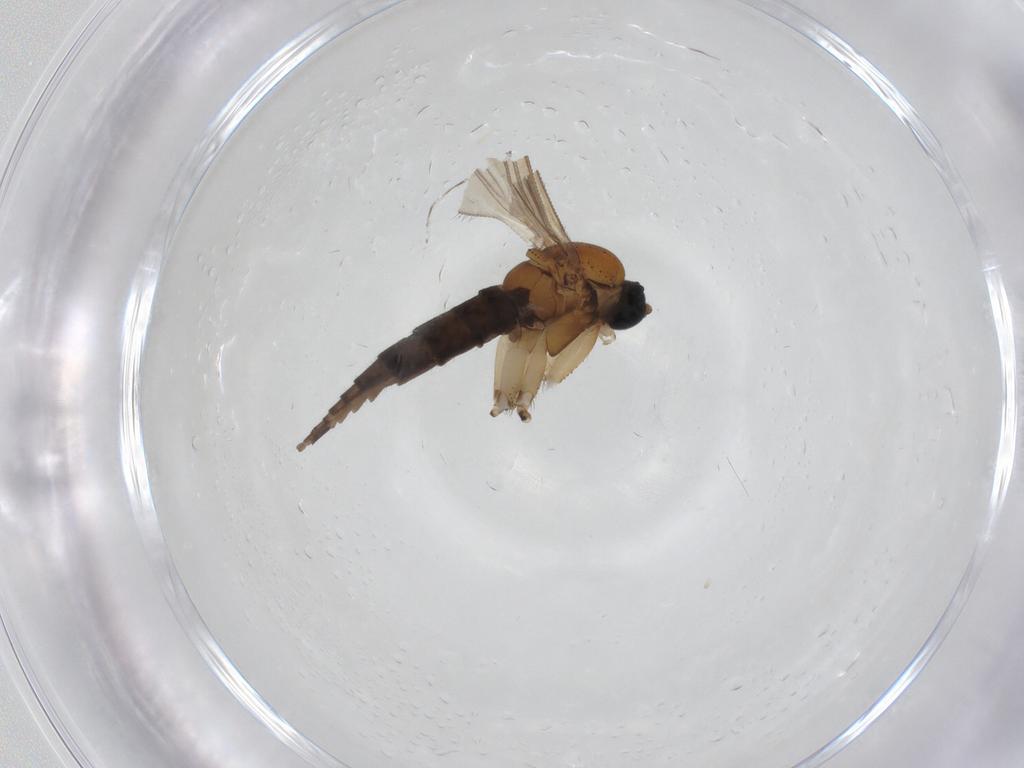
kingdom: Animalia
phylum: Arthropoda
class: Insecta
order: Diptera
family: Sciaridae
